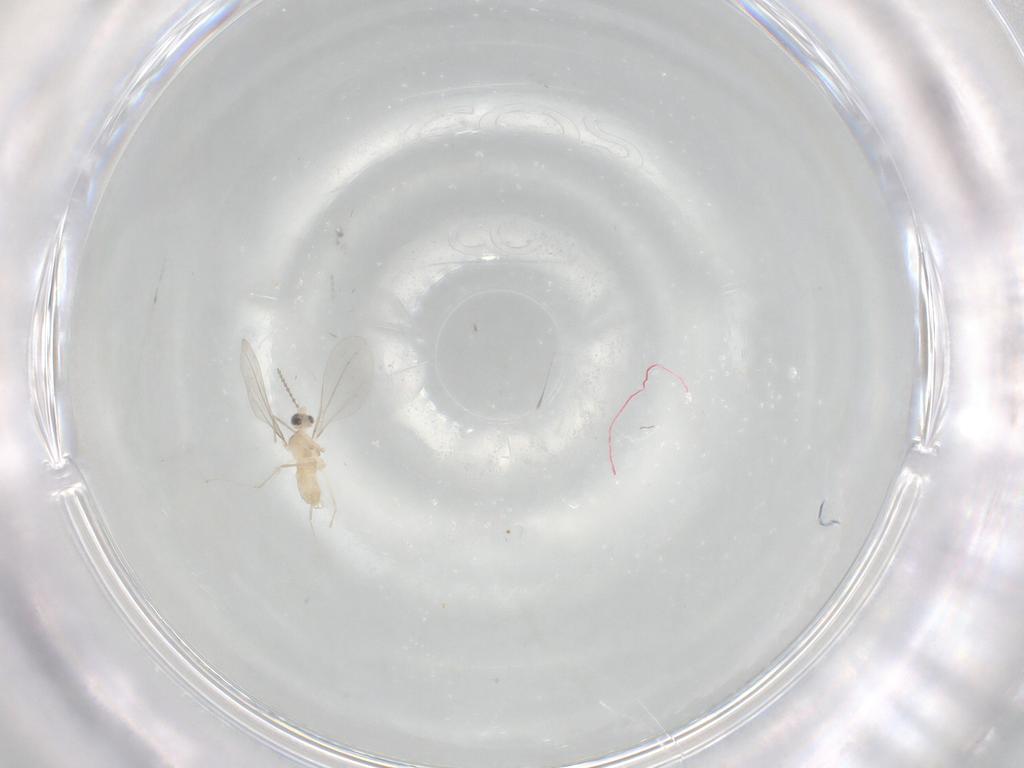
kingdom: Animalia
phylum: Arthropoda
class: Insecta
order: Diptera
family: Cecidomyiidae
